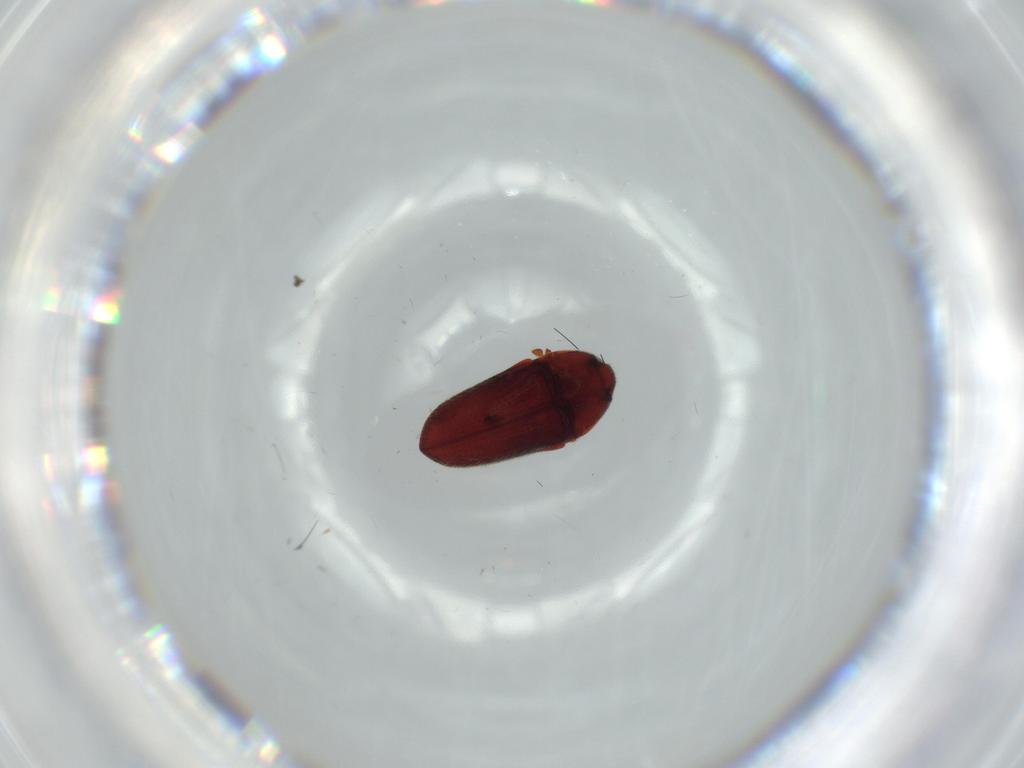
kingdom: Animalia
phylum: Arthropoda
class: Insecta
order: Coleoptera
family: Throscidae
